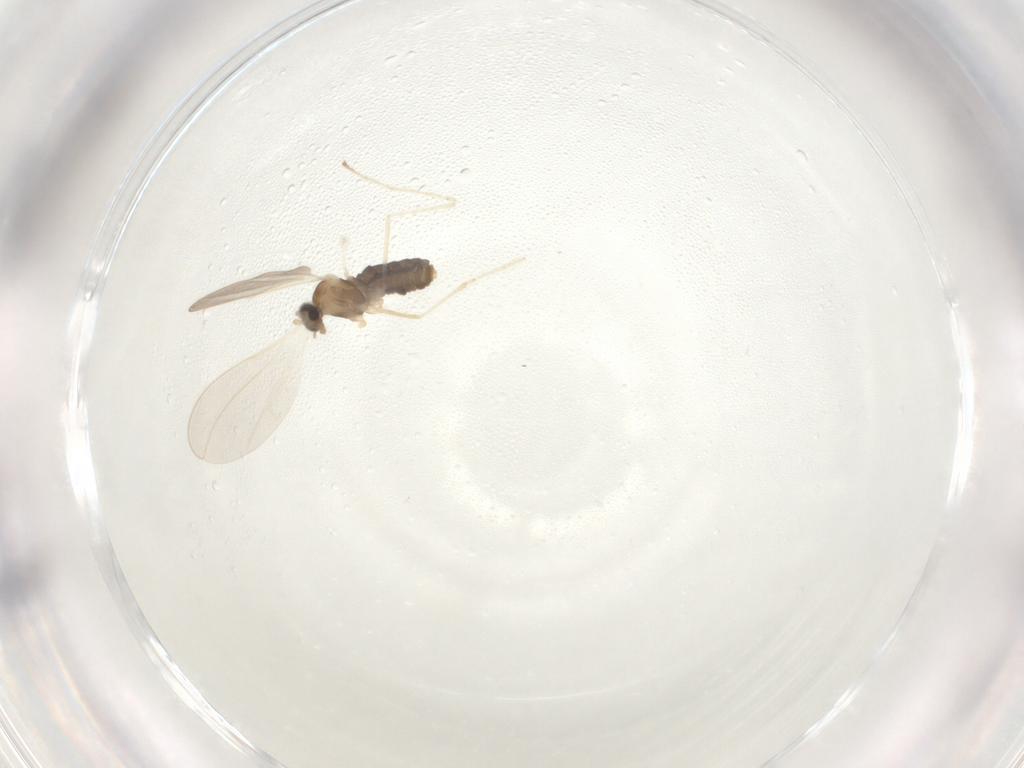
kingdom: Animalia
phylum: Arthropoda
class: Insecta
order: Diptera
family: Cecidomyiidae
